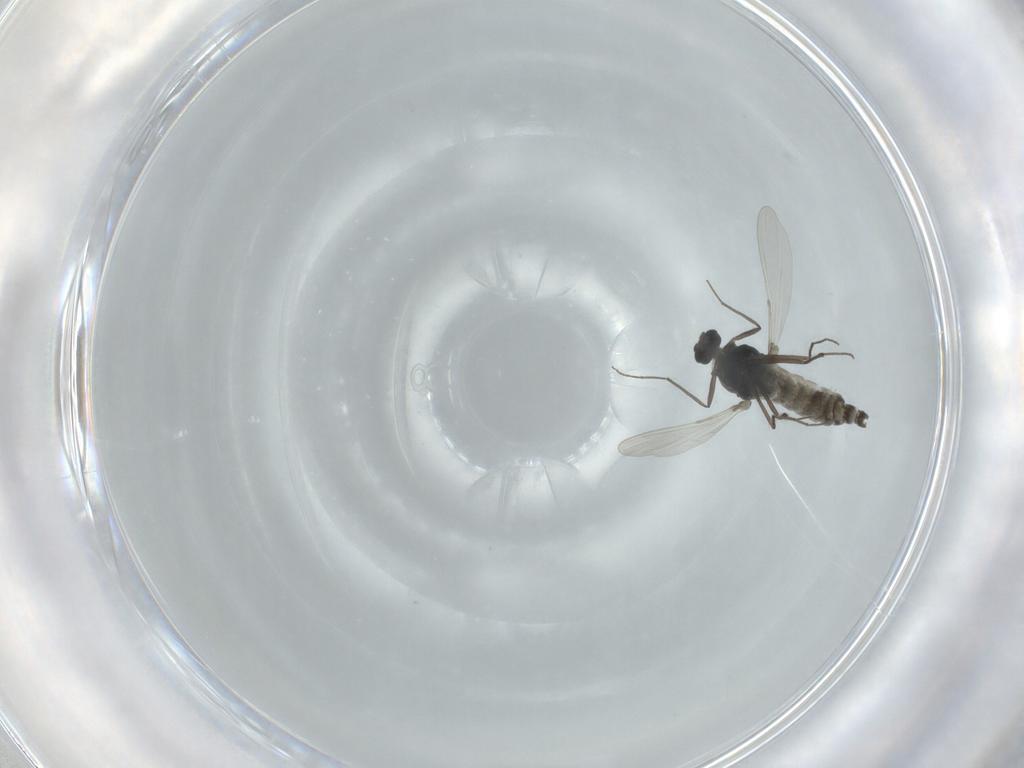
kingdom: Animalia
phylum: Arthropoda
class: Insecta
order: Diptera
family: Chironomidae
